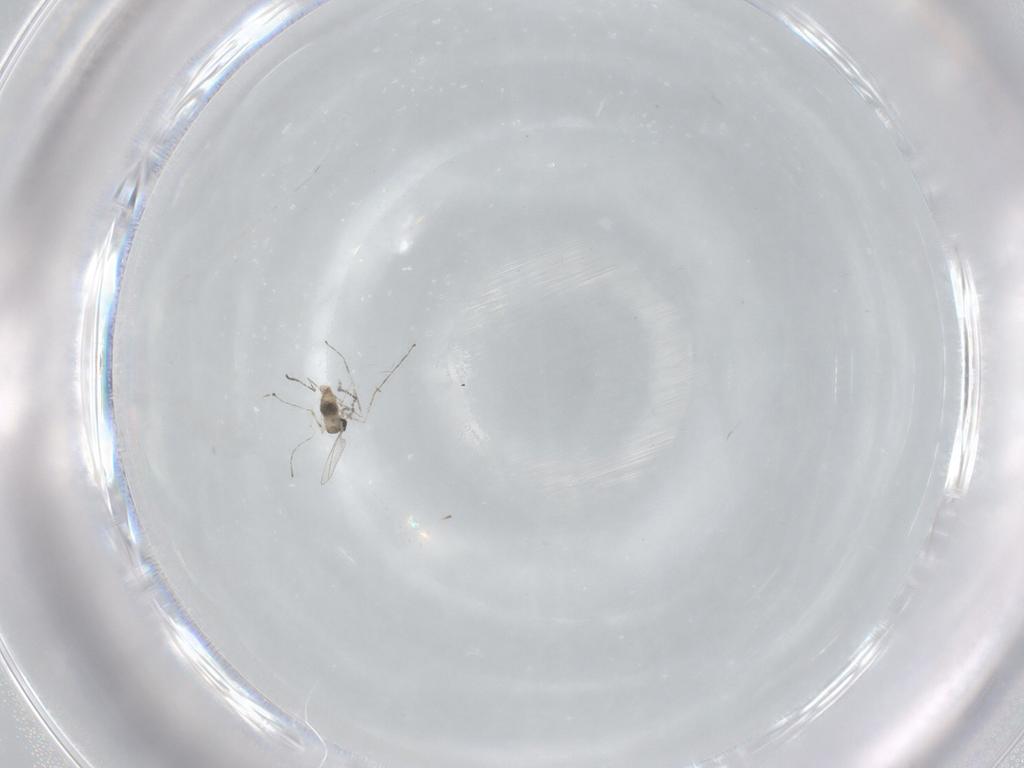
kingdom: Animalia
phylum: Arthropoda
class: Insecta
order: Diptera
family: Cecidomyiidae
